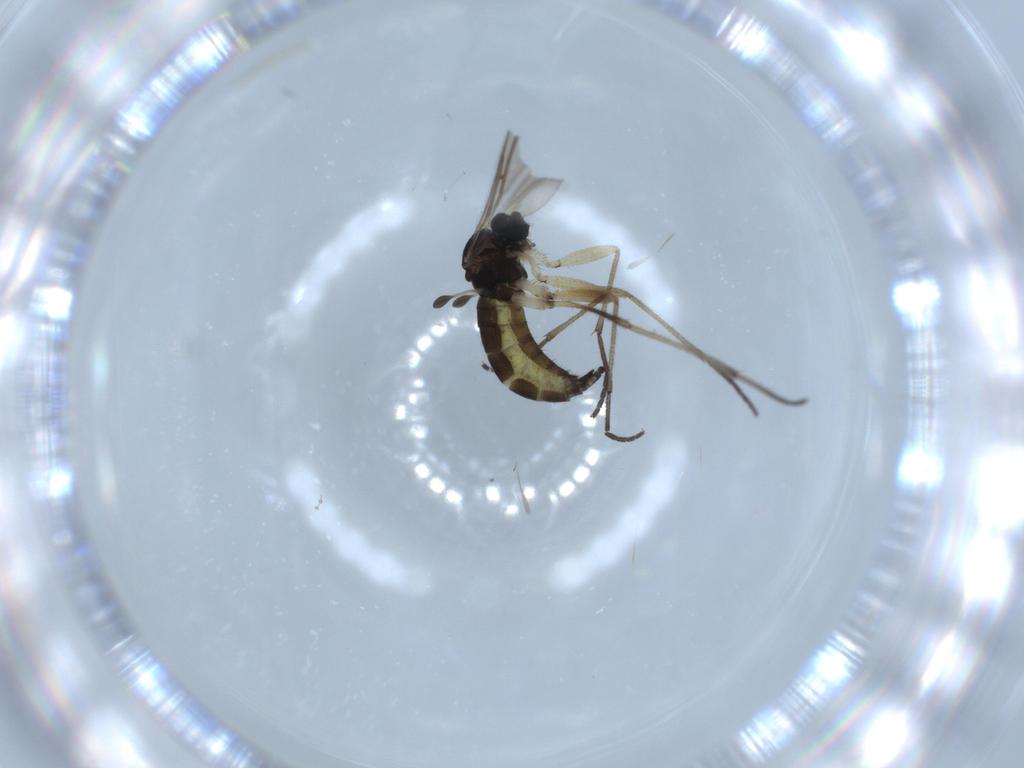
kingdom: Animalia
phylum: Arthropoda
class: Insecta
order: Diptera
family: Sciaridae
